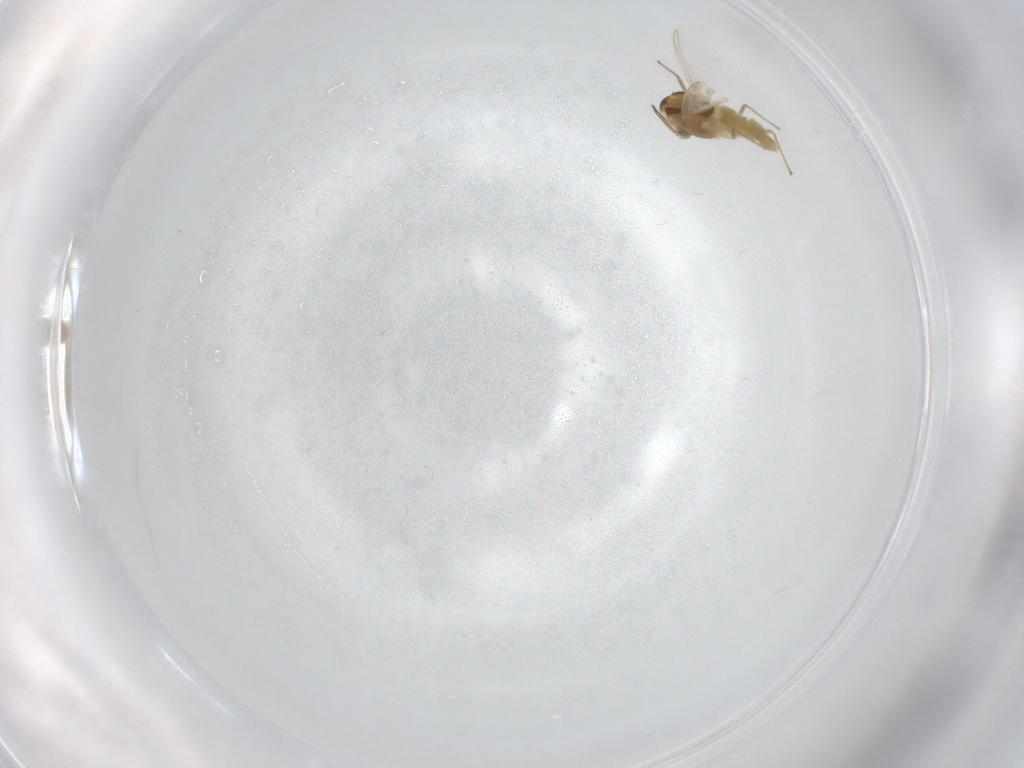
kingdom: Animalia
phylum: Arthropoda
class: Insecta
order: Diptera
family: Chironomidae
